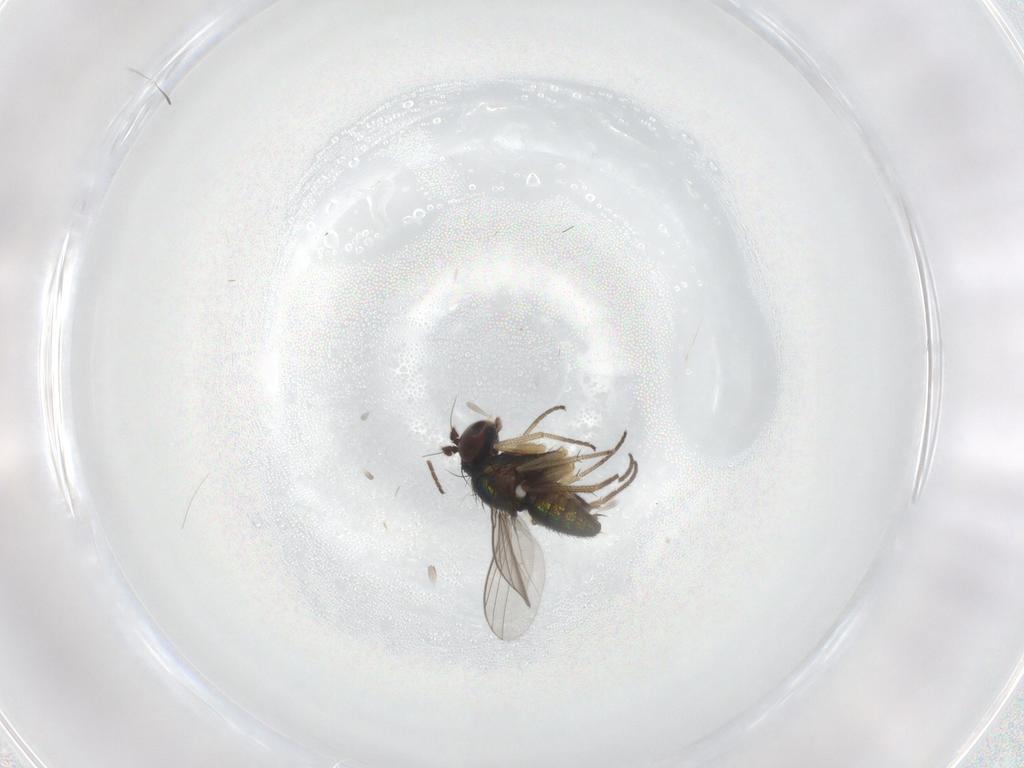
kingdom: Animalia
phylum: Arthropoda
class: Insecta
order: Diptera
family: Dolichopodidae
